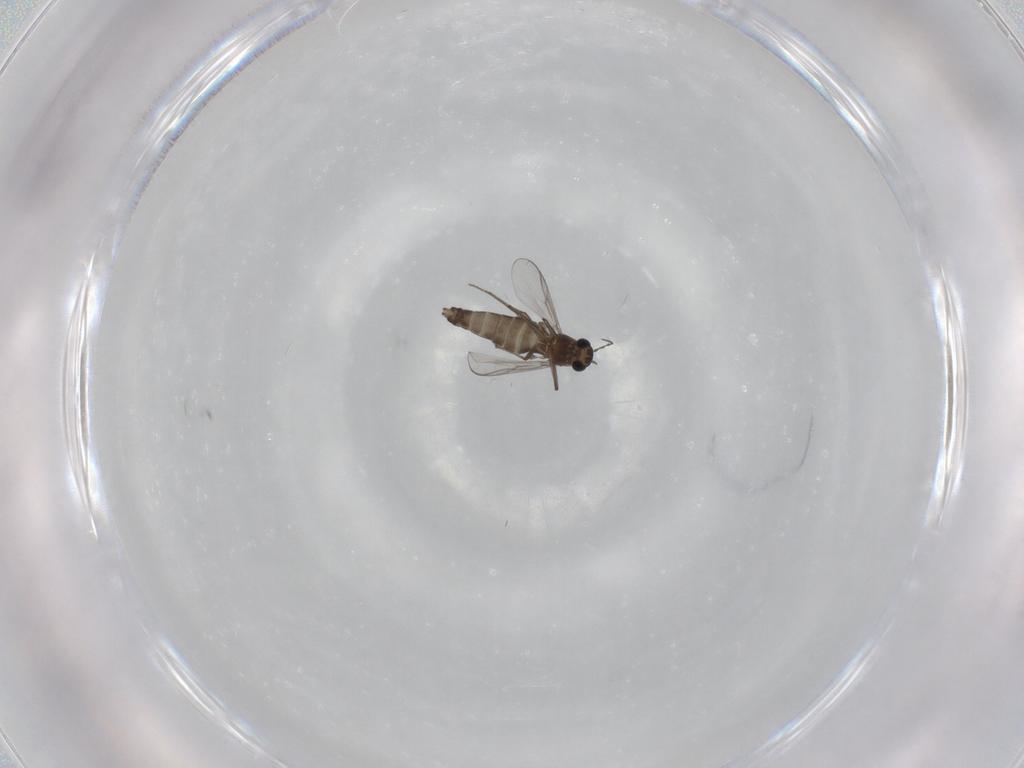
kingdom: Animalia
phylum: Arthropoda
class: Insecta
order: Diptera
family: Chironomidae
